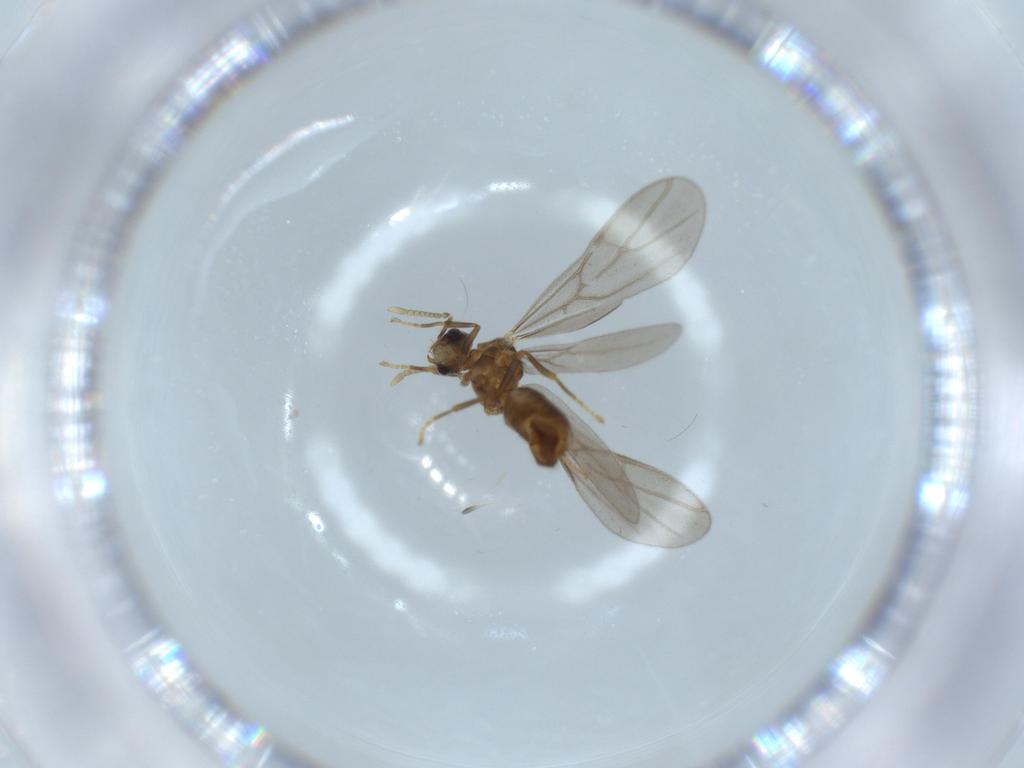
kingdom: Animalia
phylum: Arthropoda
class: Insecta
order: Hymenoptera
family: Formicidae
